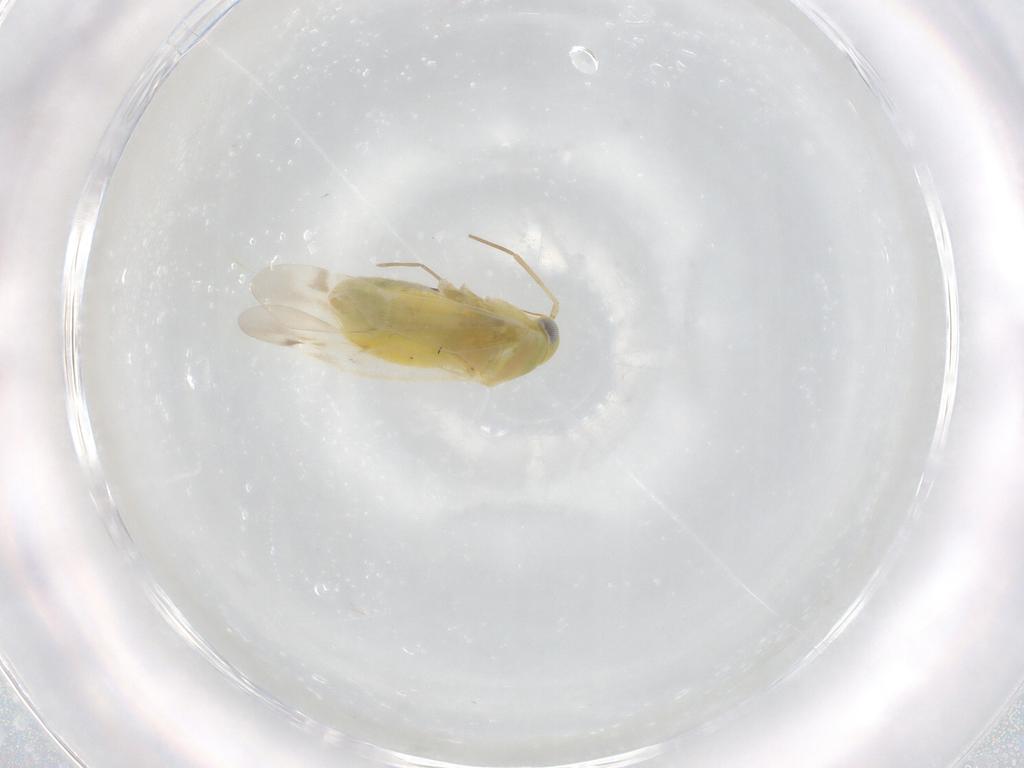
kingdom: Animalia
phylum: Arthropoda
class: Insecta
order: Hemiptera
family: Miridae
